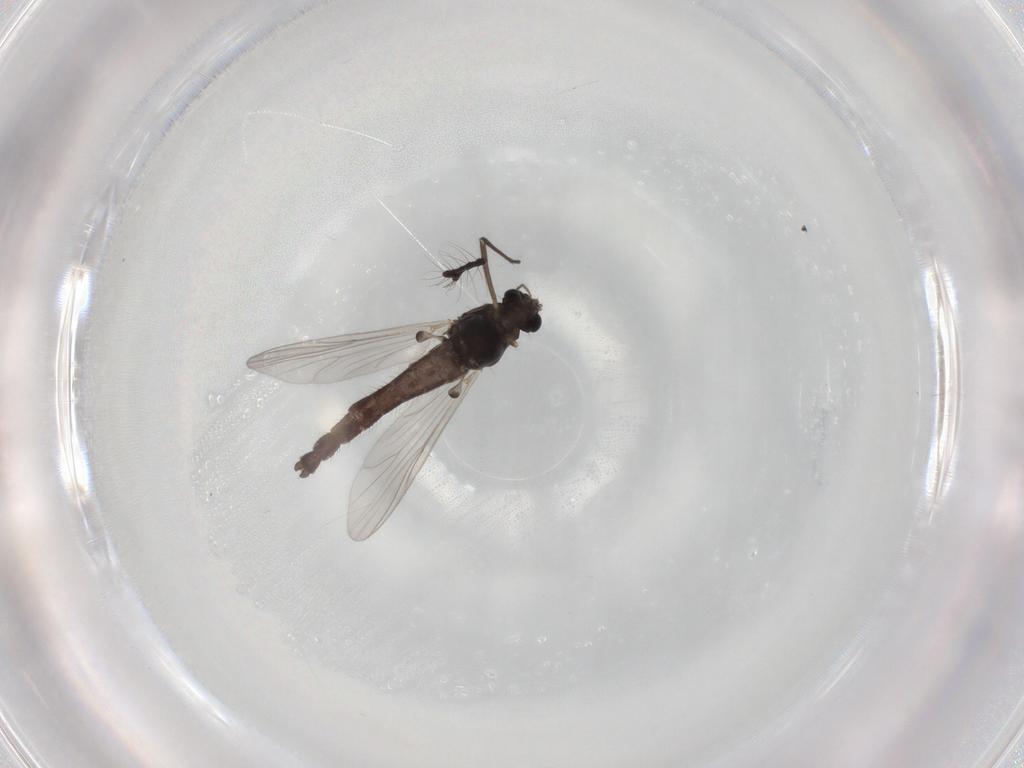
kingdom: Animalia
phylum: Arthropoda
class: Insecta
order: Diptera
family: Chironomidae
